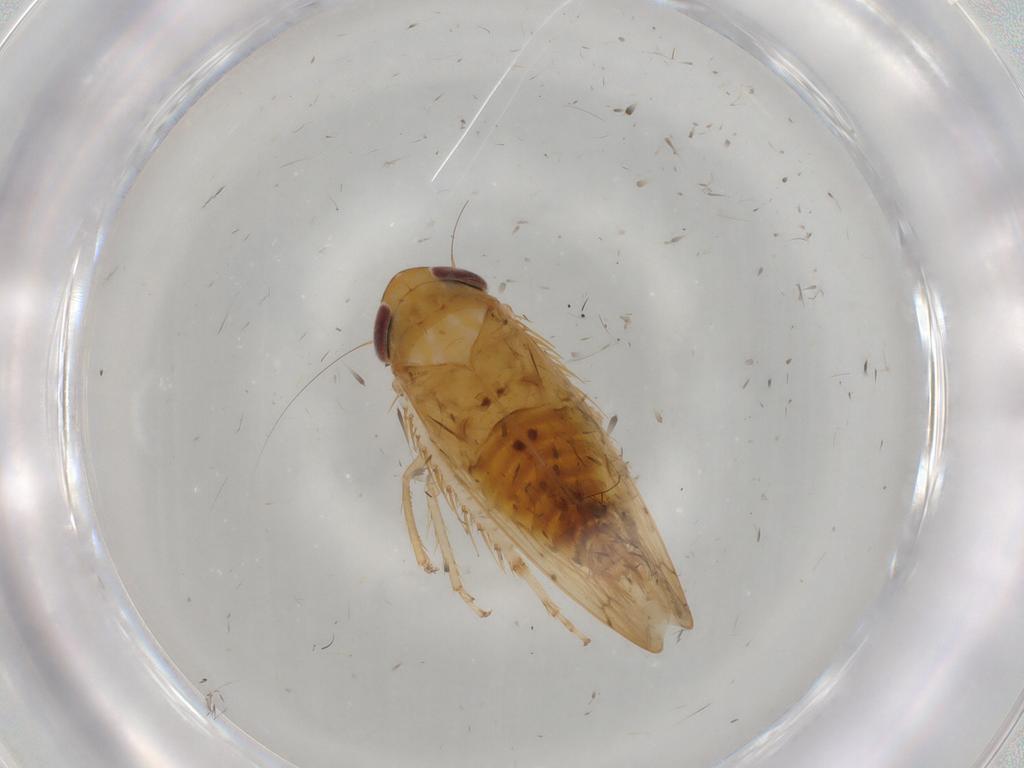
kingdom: Animalia
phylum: Arthropoda
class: Insecta
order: Hemiptera
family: Cicadellidae
